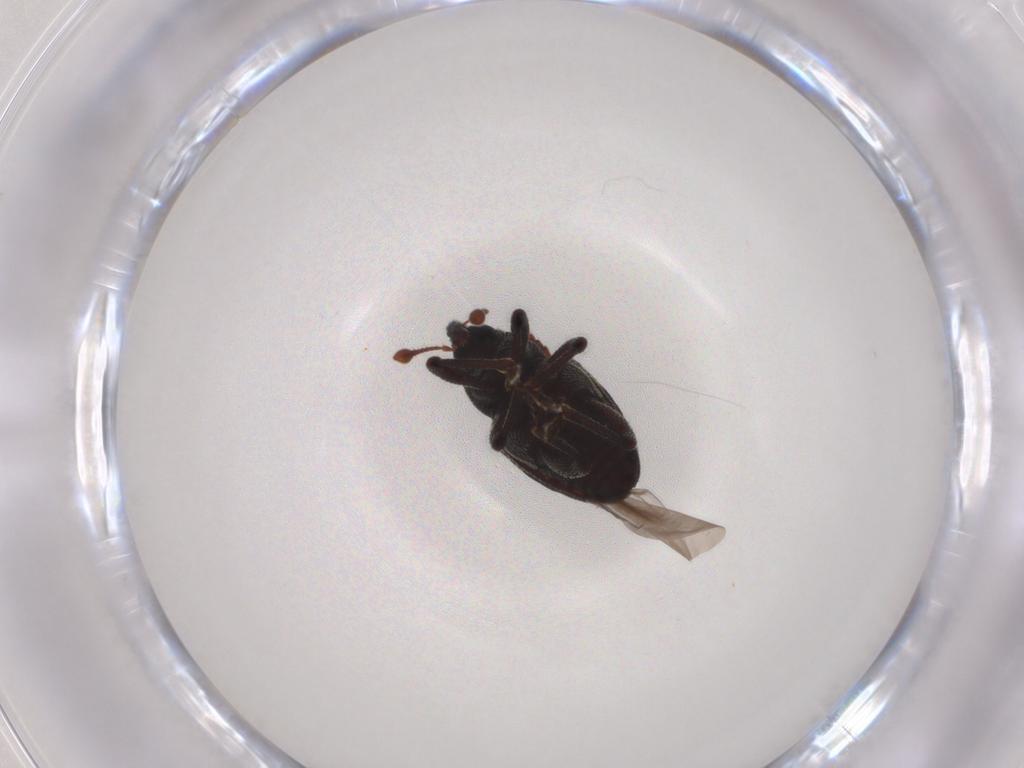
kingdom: Animalia
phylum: Arthropoda
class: Insecta
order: Coleoptera
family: Curculionidae
